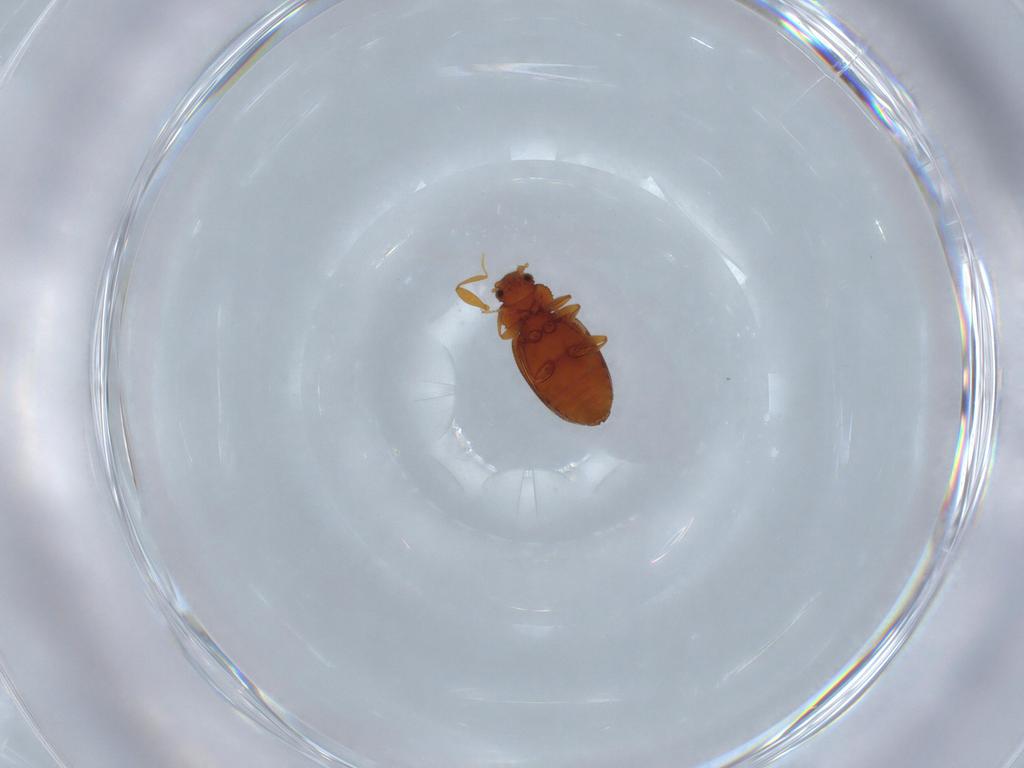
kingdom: Animalia
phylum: Arthropoda
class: Insecta
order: Coleoptera
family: Latridiidae
